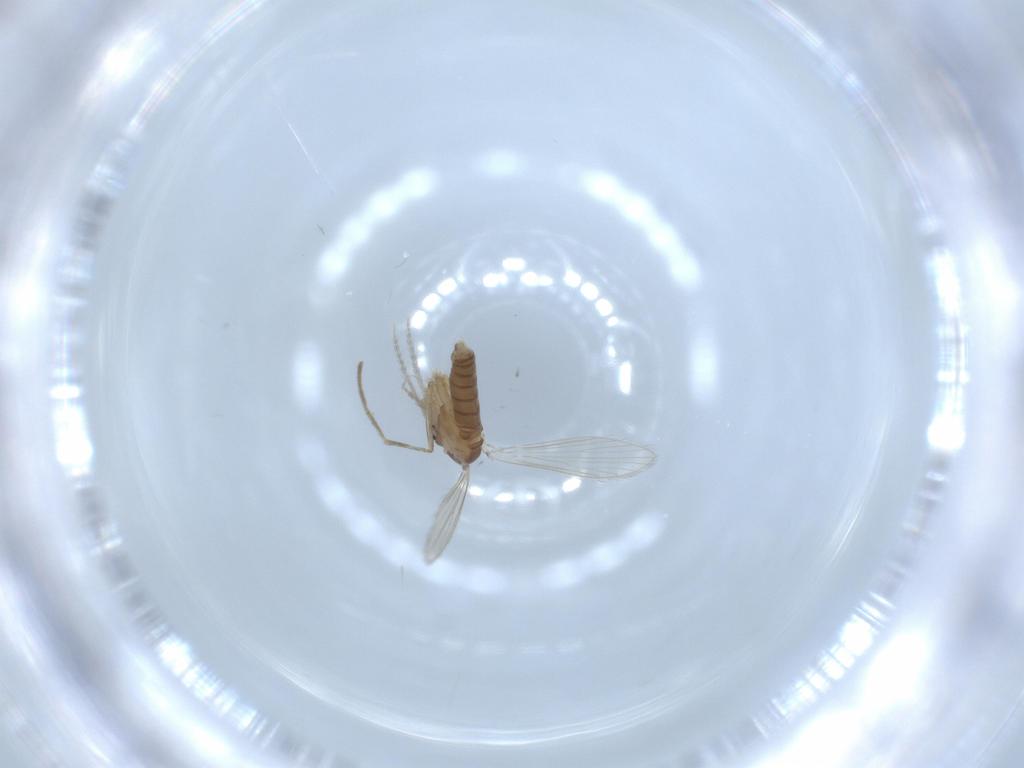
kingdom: Animalia
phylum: Arthropoda
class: Insecta
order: Diptera
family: Psychodidae
